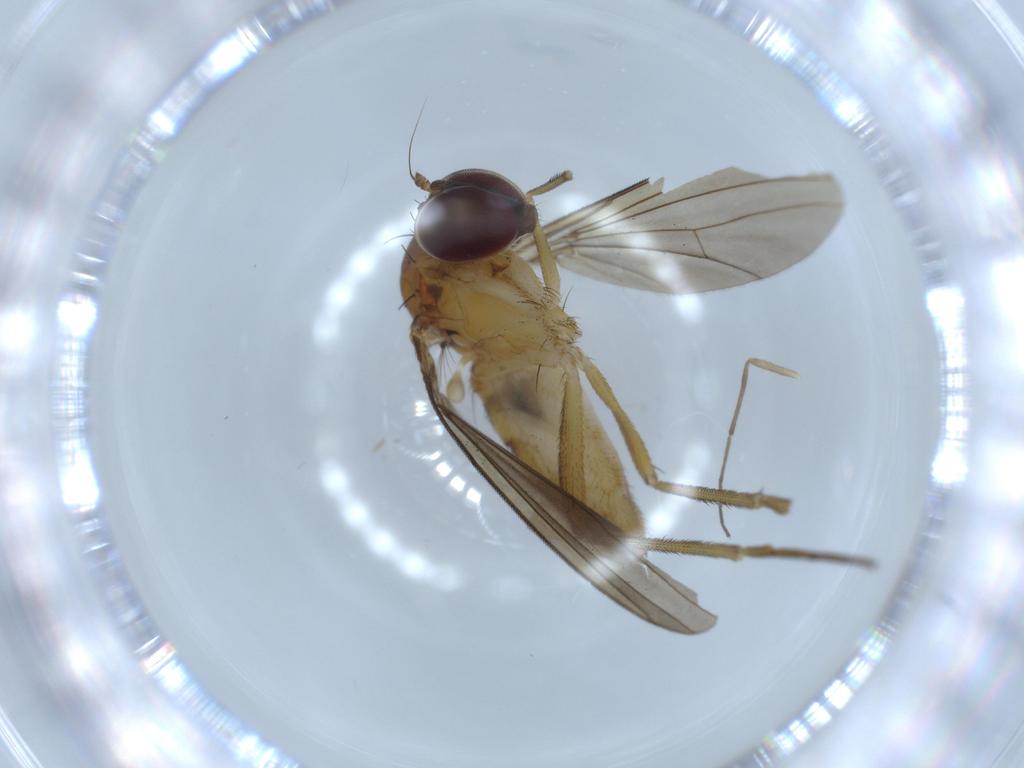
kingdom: Animalia
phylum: Arthropoda
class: Insecta
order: Diptera
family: Dolichopodidae
